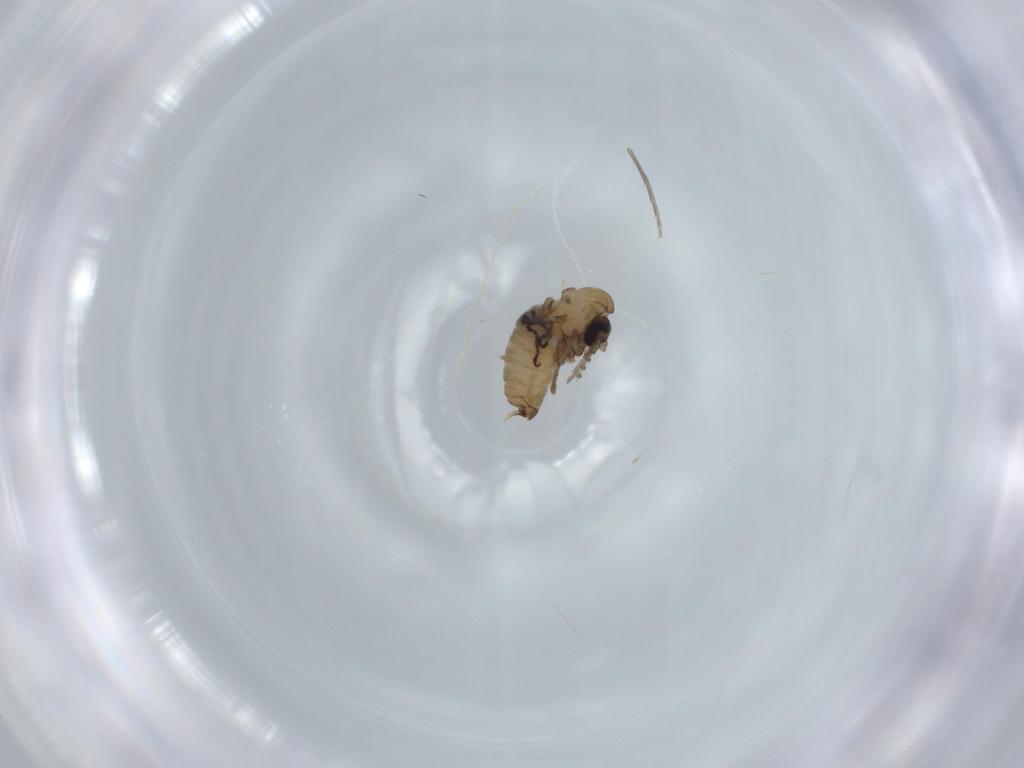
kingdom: Animalia
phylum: Arthropoda
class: Insecta
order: Diptera
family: Psychodidae
